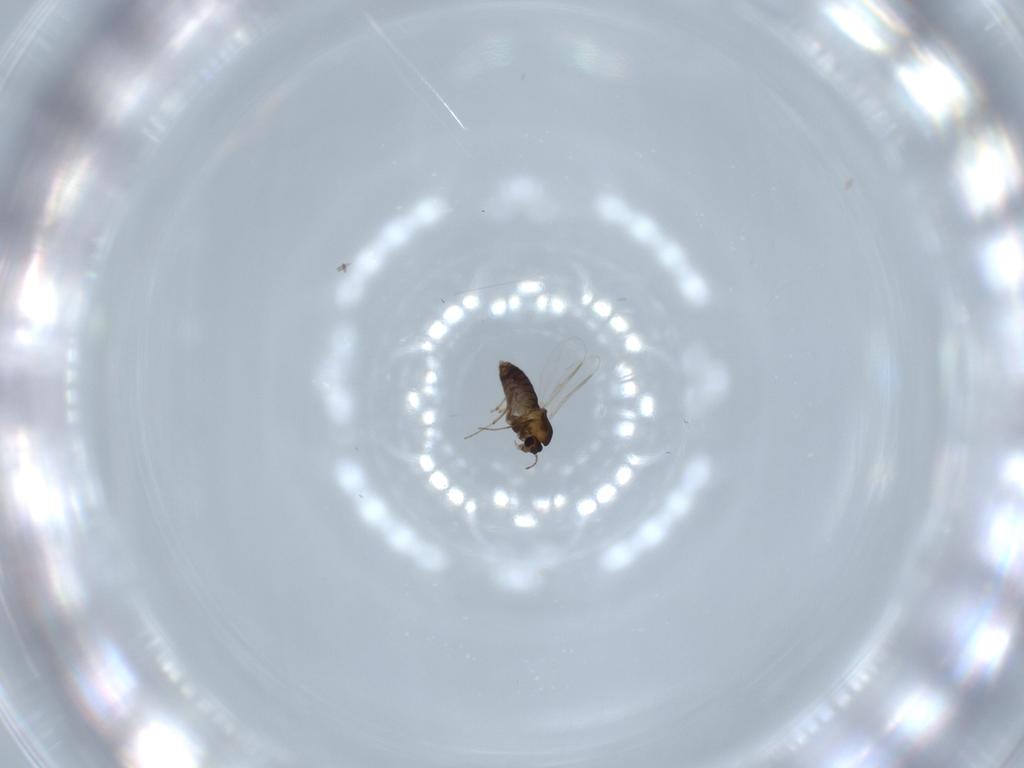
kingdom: Animalia
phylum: Arthropoda
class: Insecta
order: Diptera
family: Chironomidae
